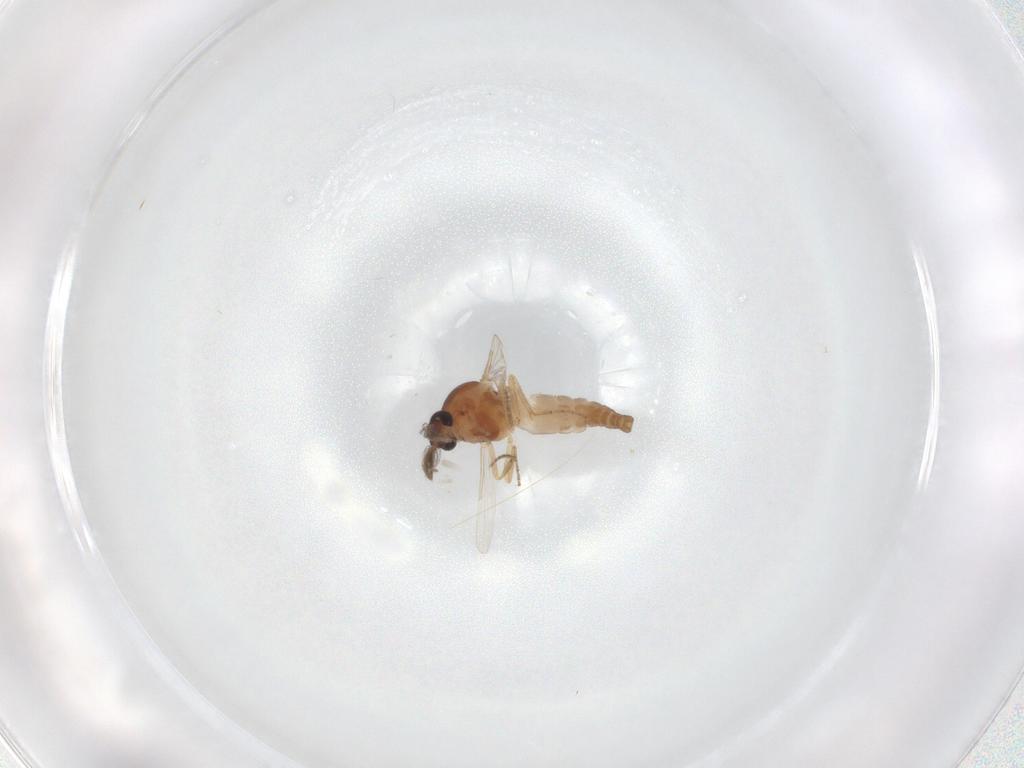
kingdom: Animalia
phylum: Arthropoda
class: Insecta
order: Diptera
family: Ceratopogonidae
